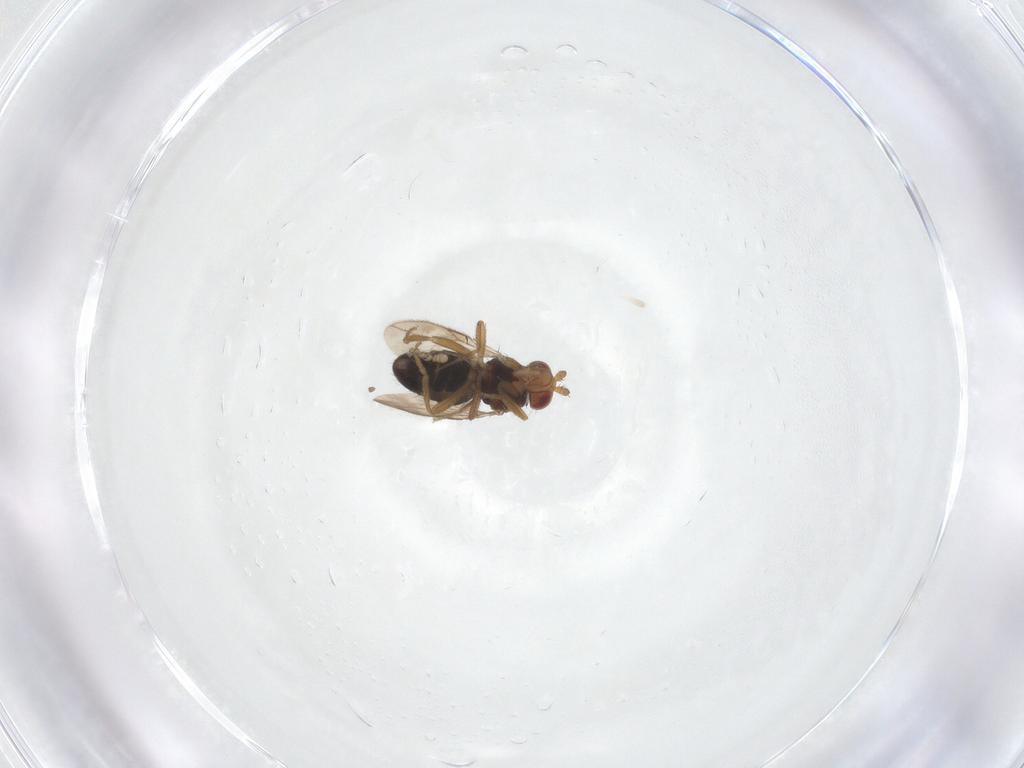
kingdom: Animalia
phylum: Arthropoda
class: Insecta
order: Diptera
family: Sphaeroceridae
